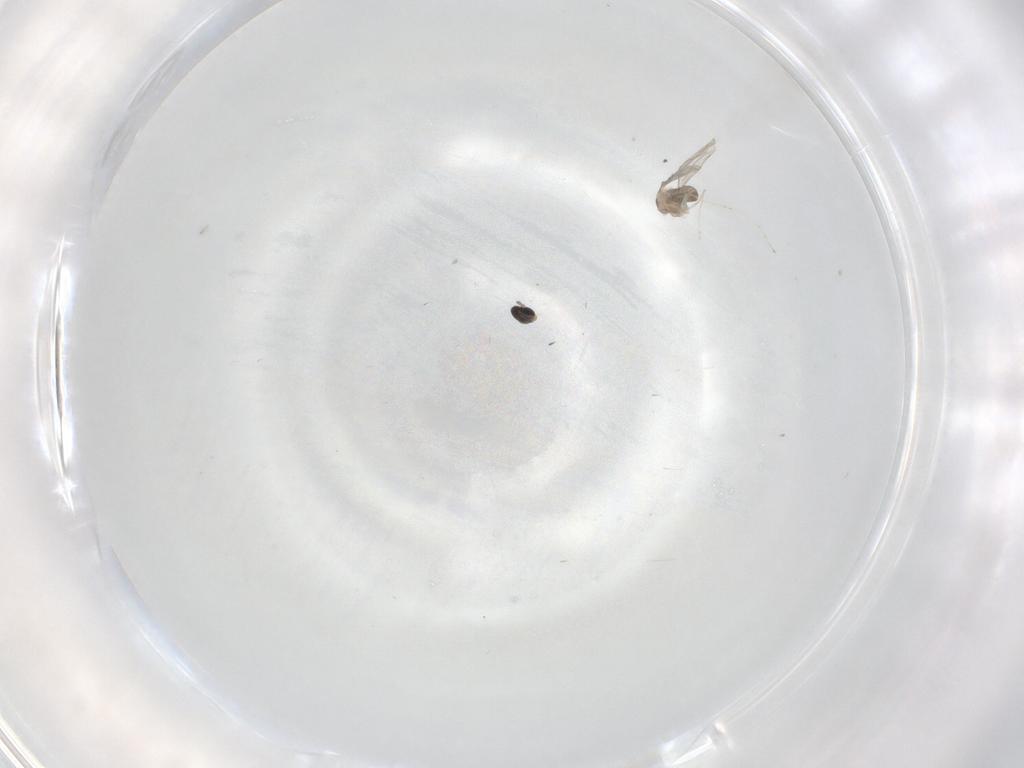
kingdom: Animalia
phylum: Arthropoda
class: Insecta
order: Diptera
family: Cecidomyiidae
